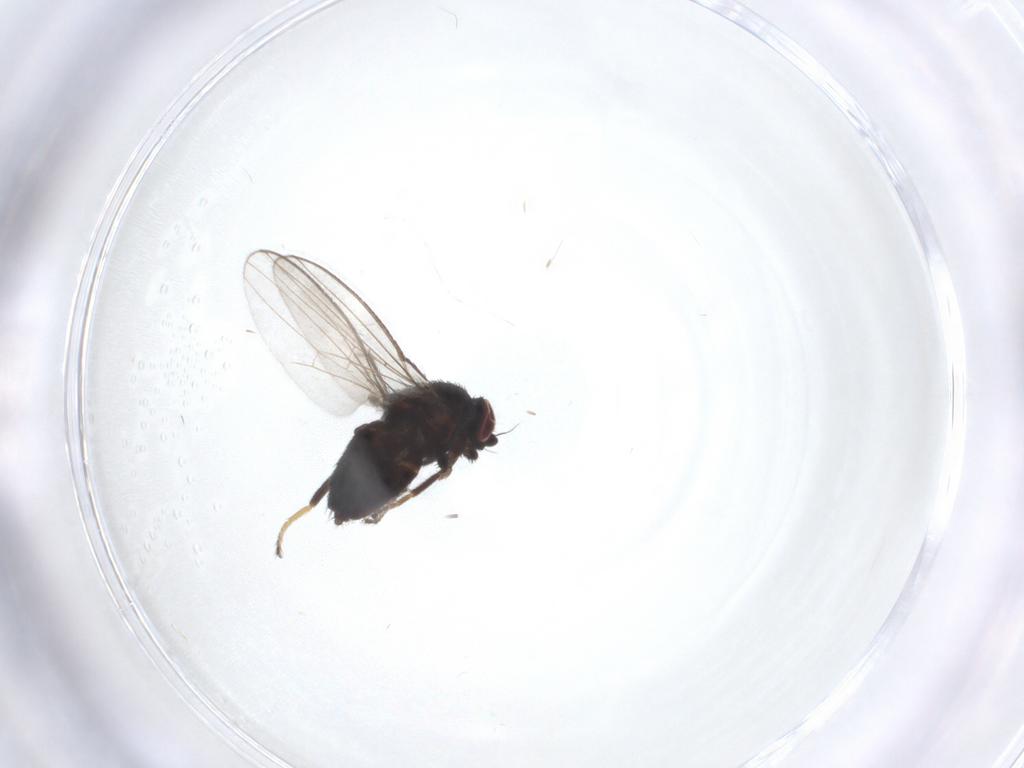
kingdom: Animalia
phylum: Arthropoda
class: Insecta
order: Diptera
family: Milichiidae
